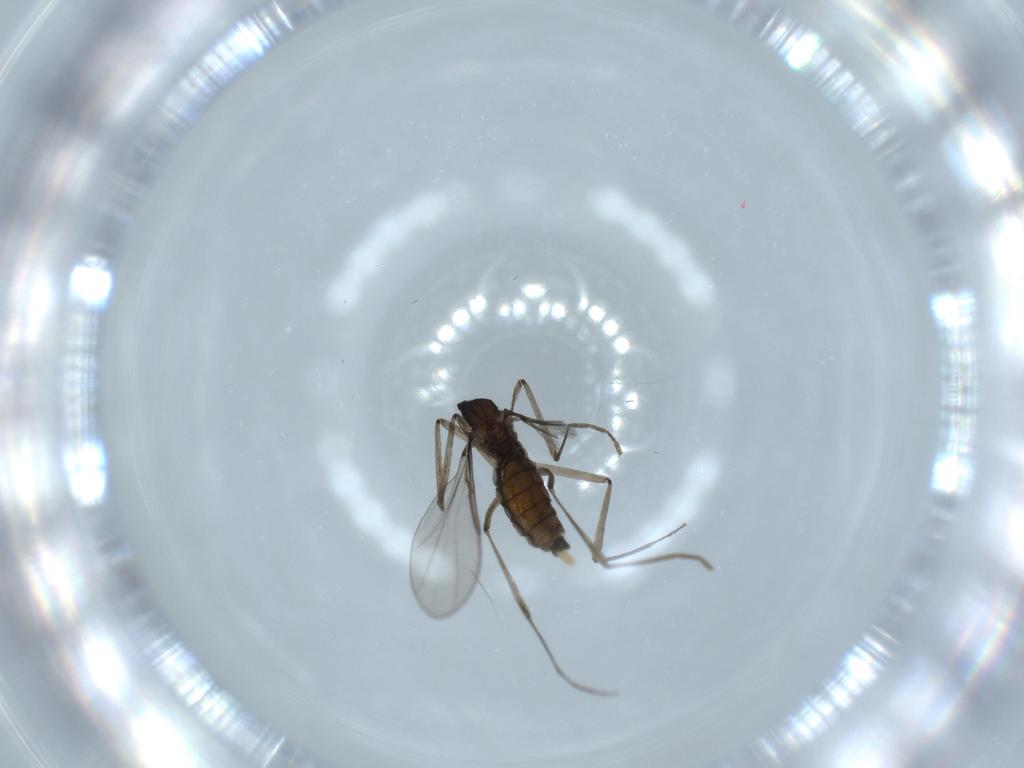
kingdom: Animalia
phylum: Arthropoda
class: Insecta
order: Diptera
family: Cecidomyiidae
